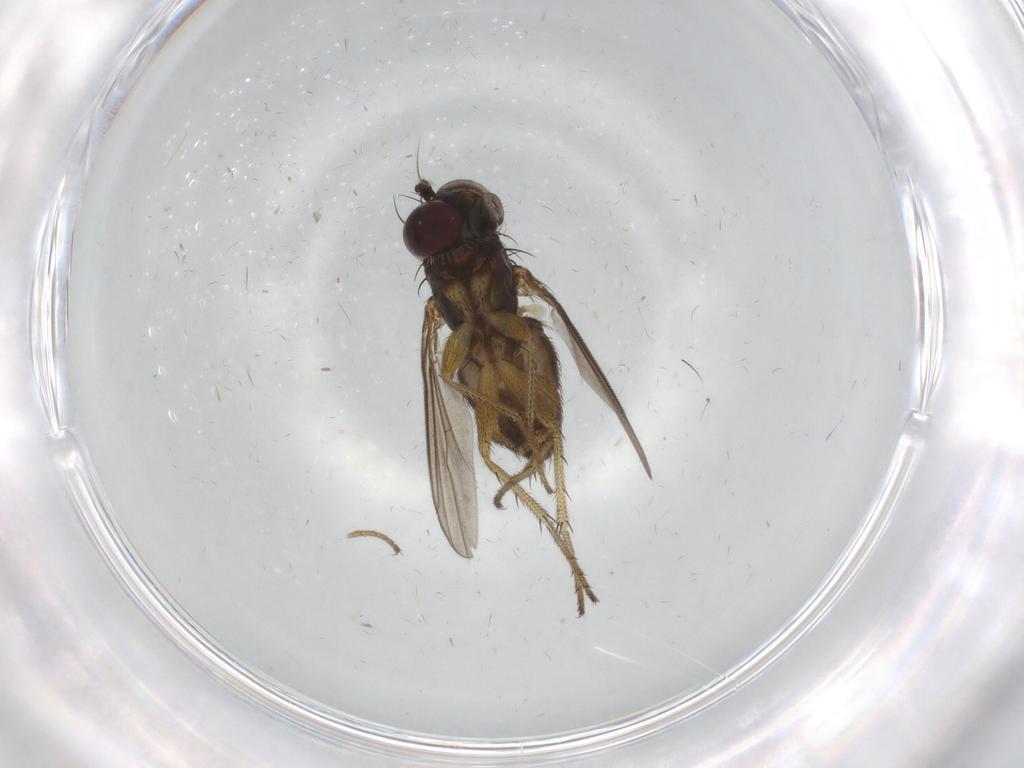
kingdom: Animalia
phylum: Arthropoda
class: Insecta
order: Diptera
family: Dolichopodidae
